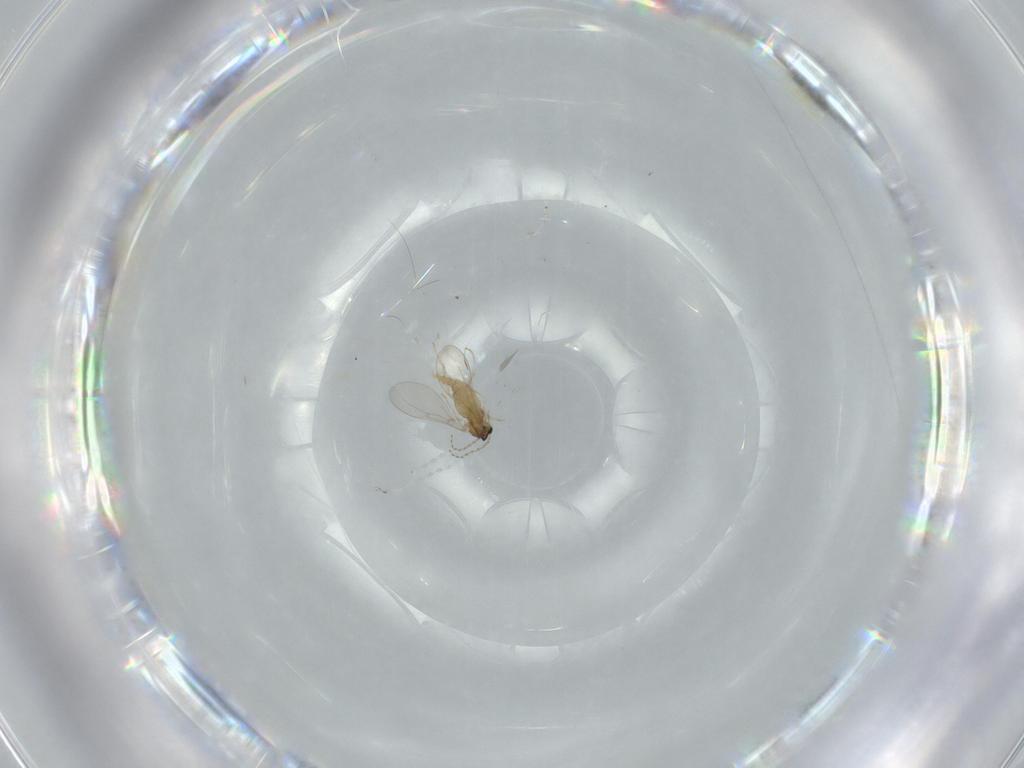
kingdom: Animalia
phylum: Arthropoda
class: Insecta
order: Diptera
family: Cecidomyiidae
